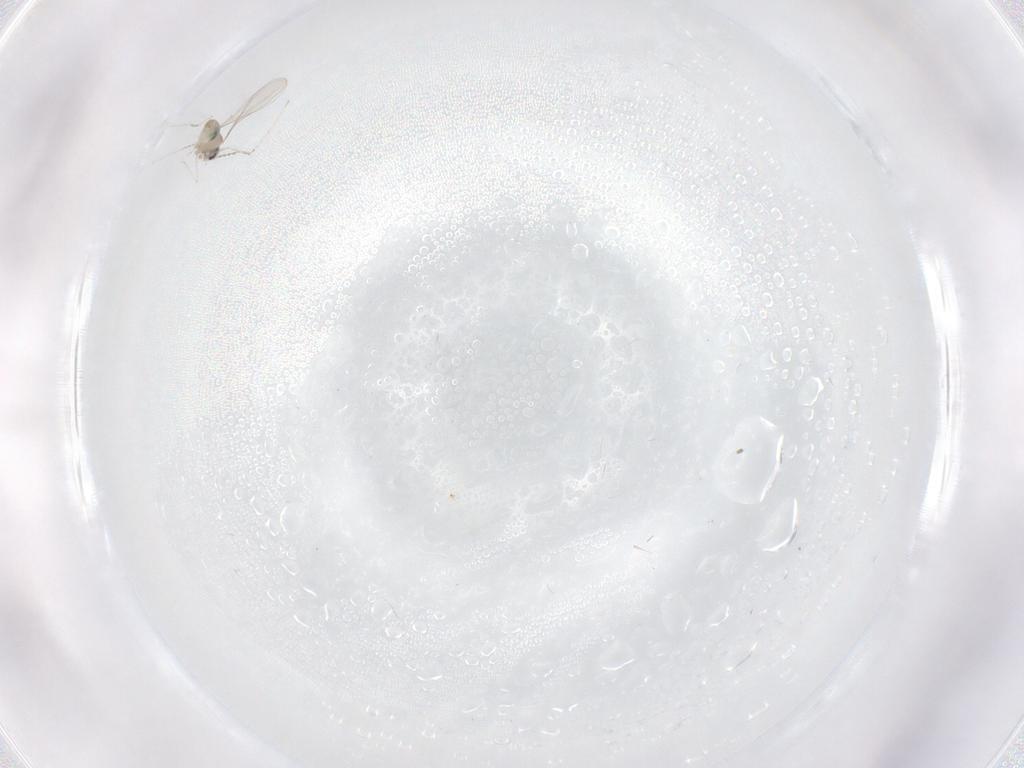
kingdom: Animalia
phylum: Arthropoda
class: Insecta
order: Diptera
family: Cecidomyiidae
